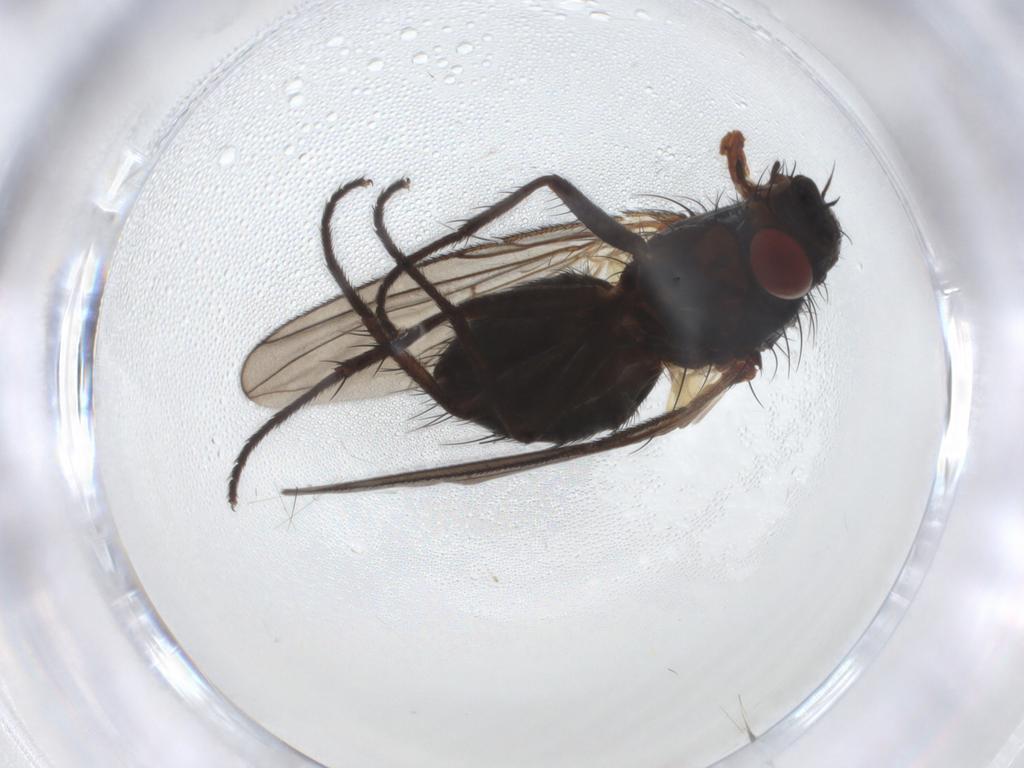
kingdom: Animalia
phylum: Arthropoda
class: Insecta
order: Diptera
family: Tachinidae
